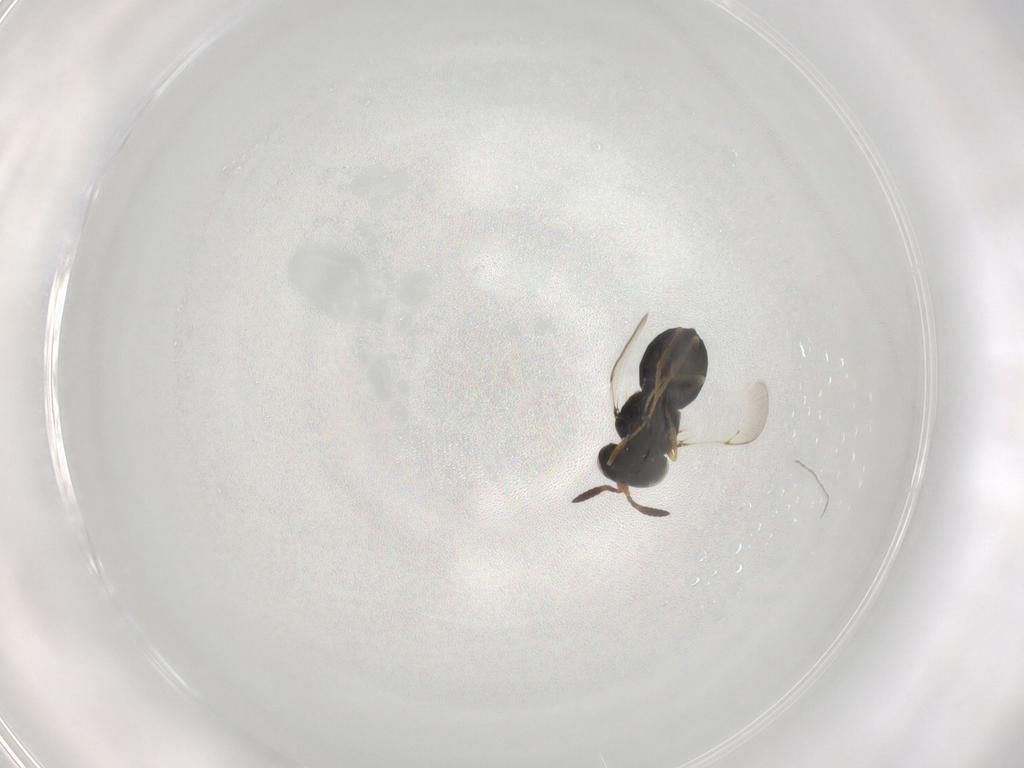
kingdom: Animalia
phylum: Arthropoda
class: Insecta
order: Hymenoptera
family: Scelionidae
